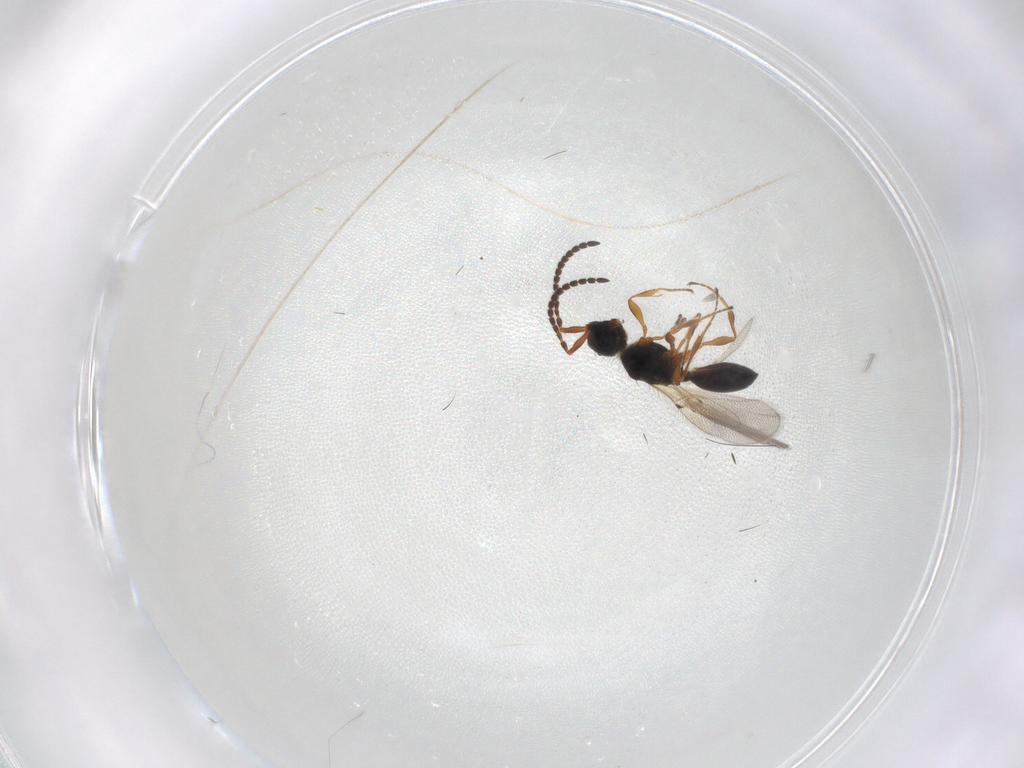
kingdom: Animalia
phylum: Arthropoda
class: Insecta
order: Hymenoptera
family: Diapriidae
